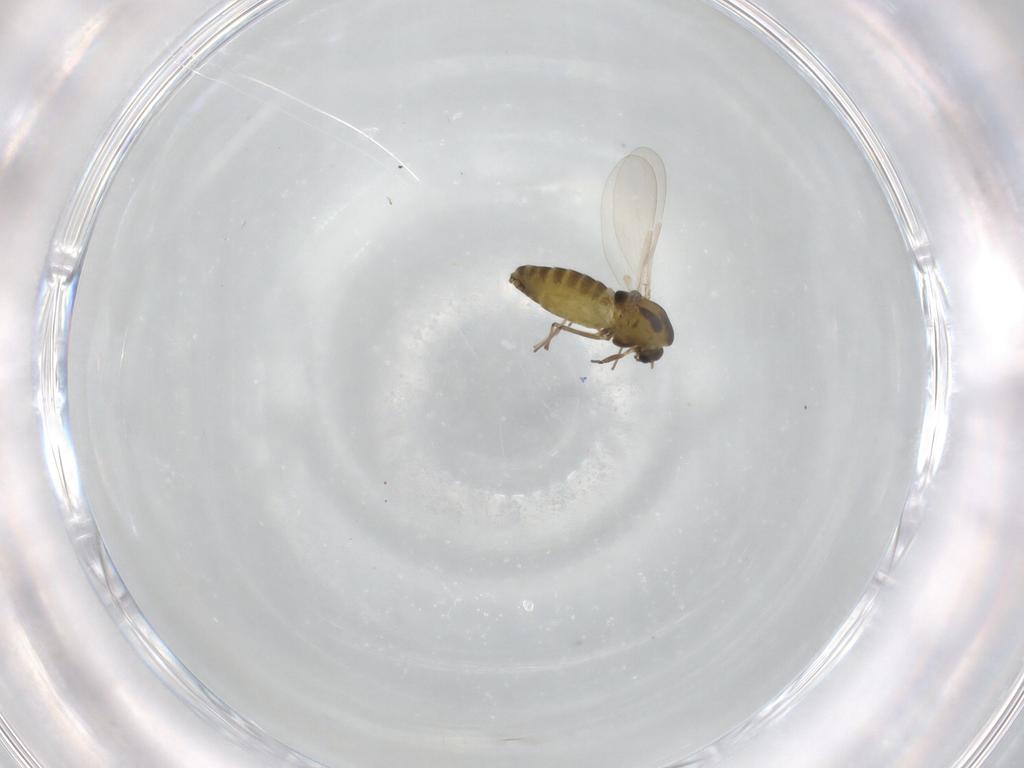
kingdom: Animalia
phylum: Arthropoda
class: Insecta
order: Diptera
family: Chironomidae
